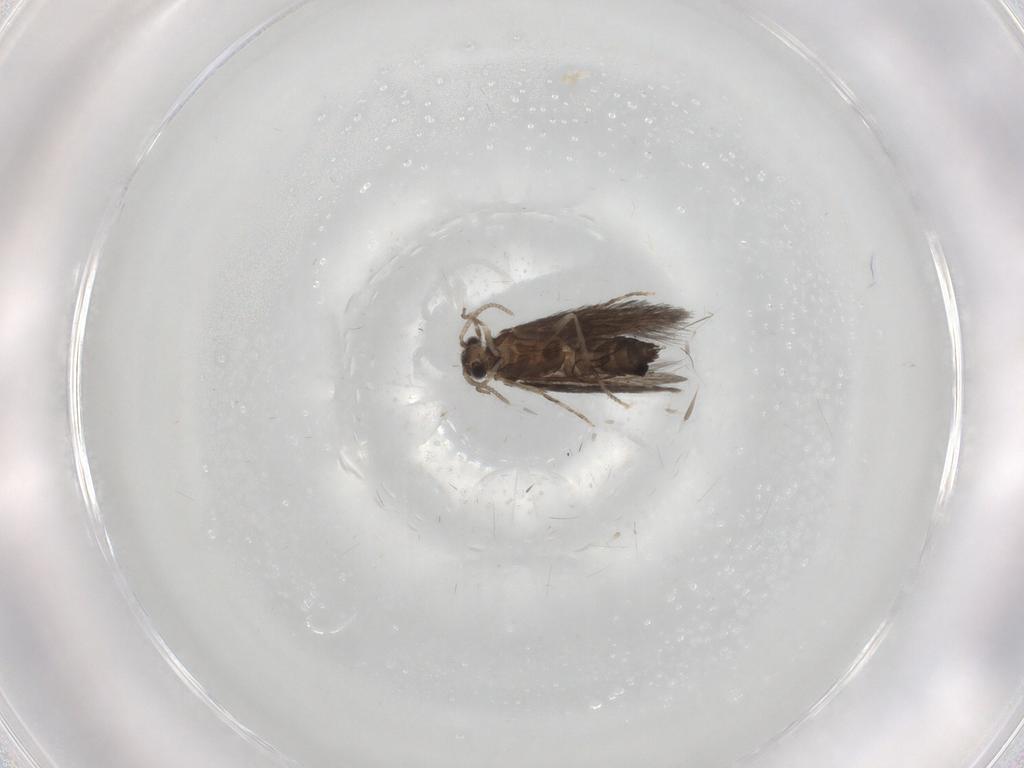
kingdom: Animalia
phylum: Arthropoda
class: Insecta
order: Trichoptera
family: Hydroptilidae
